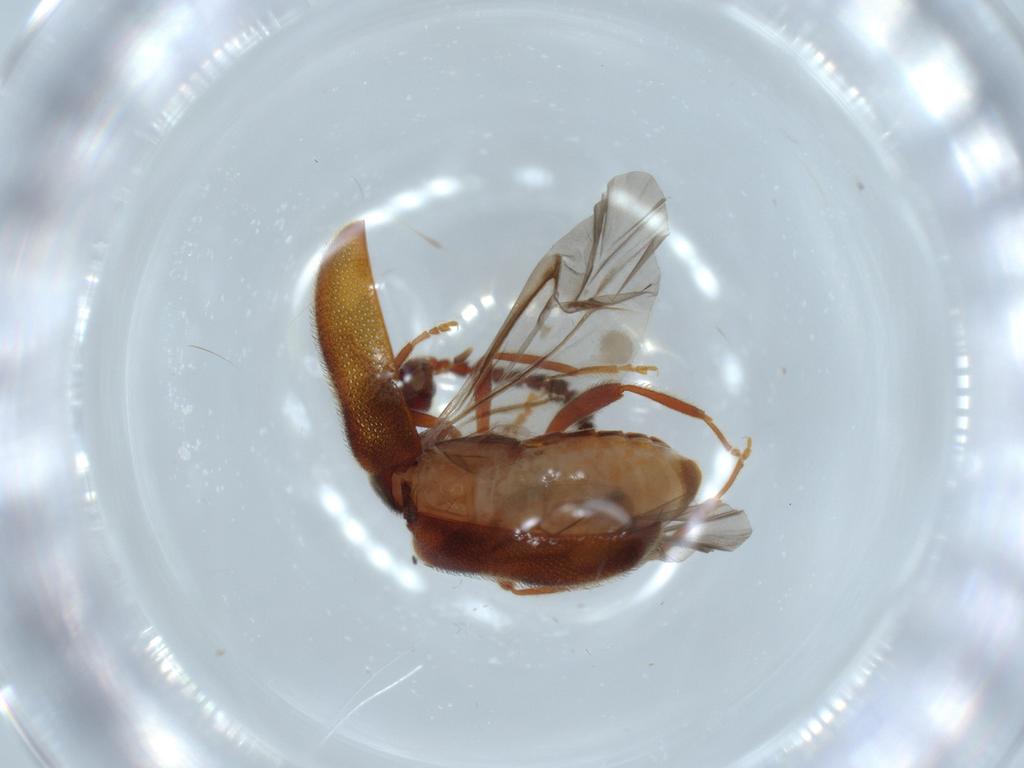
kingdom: Animalia
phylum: Arthropoda
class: Insecta
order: Coleoptera
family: Aderidae
